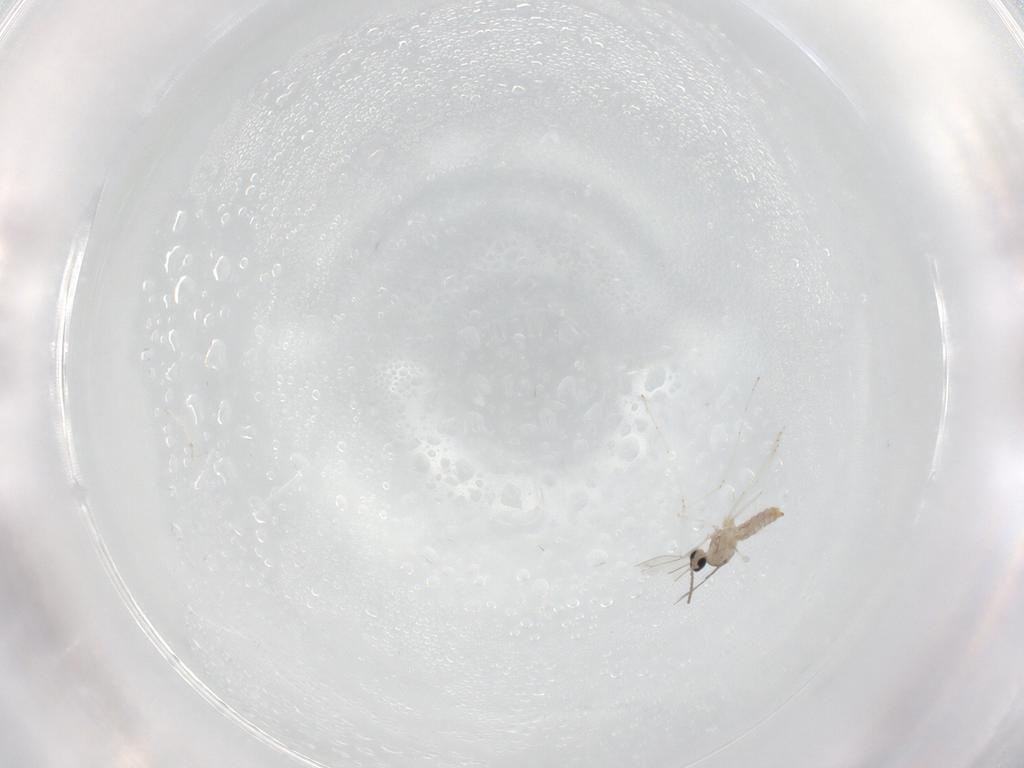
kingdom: Animalia
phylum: Arthropoda
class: Insecta
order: Diptera
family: Cecidomyiidae
